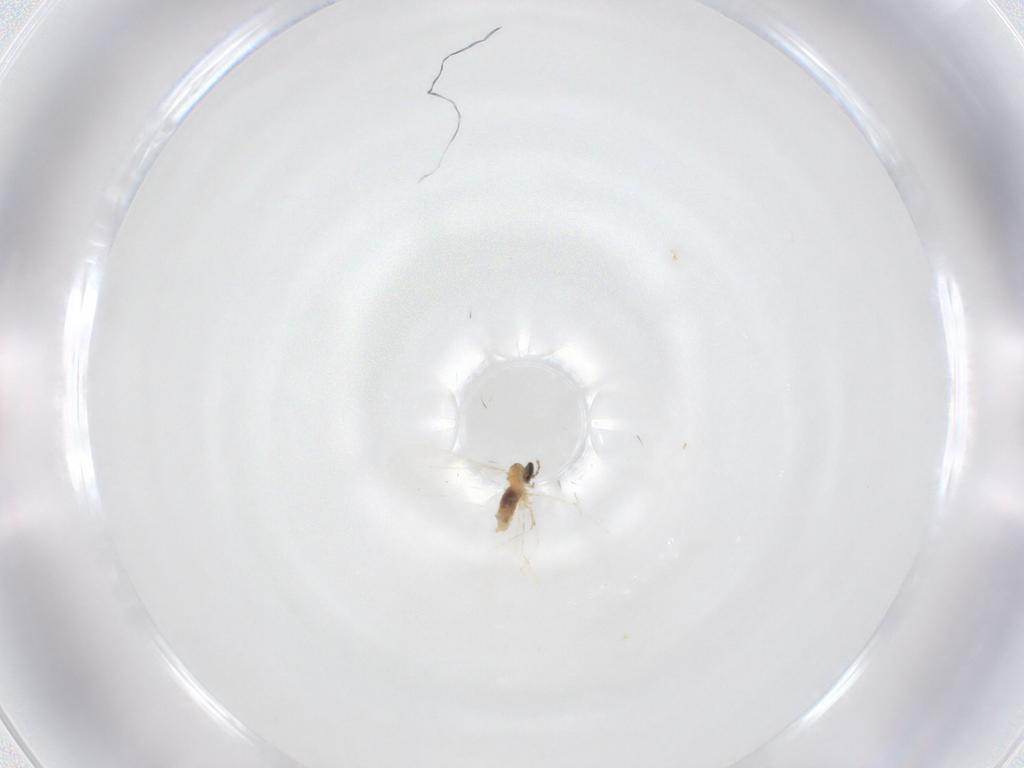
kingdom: Animalia
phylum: Arthropoda
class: Insecta
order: Diptera
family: Cecidomyiidae
